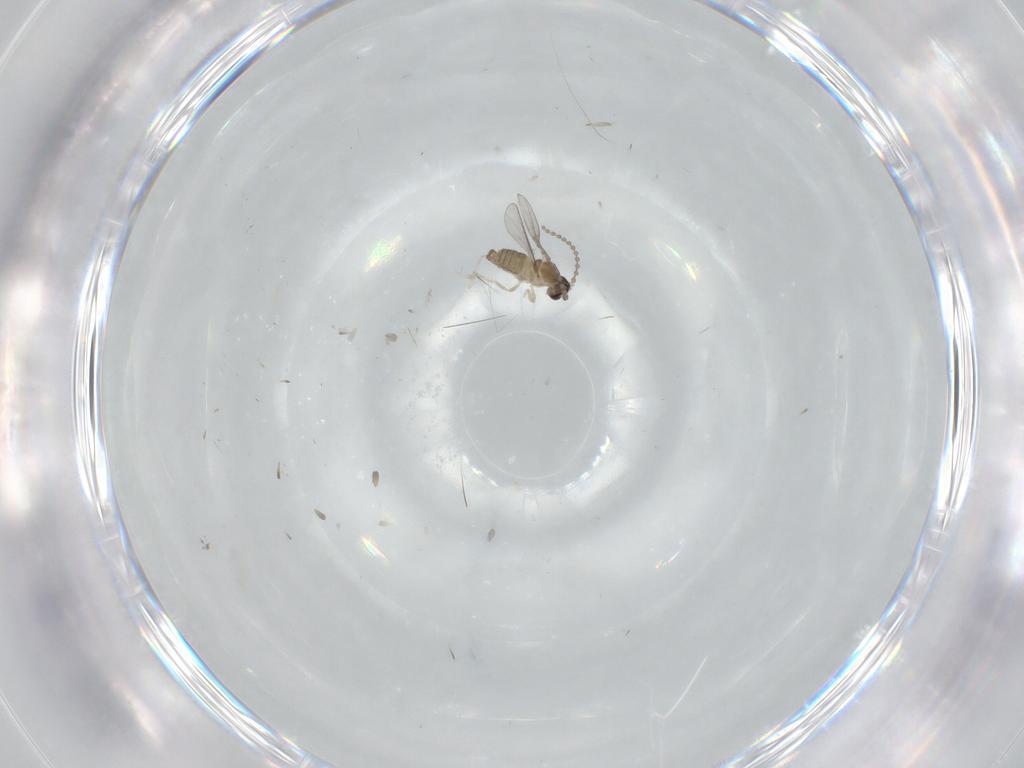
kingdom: Animalia
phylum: Arthropoda
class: Insecta
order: Diptera
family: Cecidomyiidae
